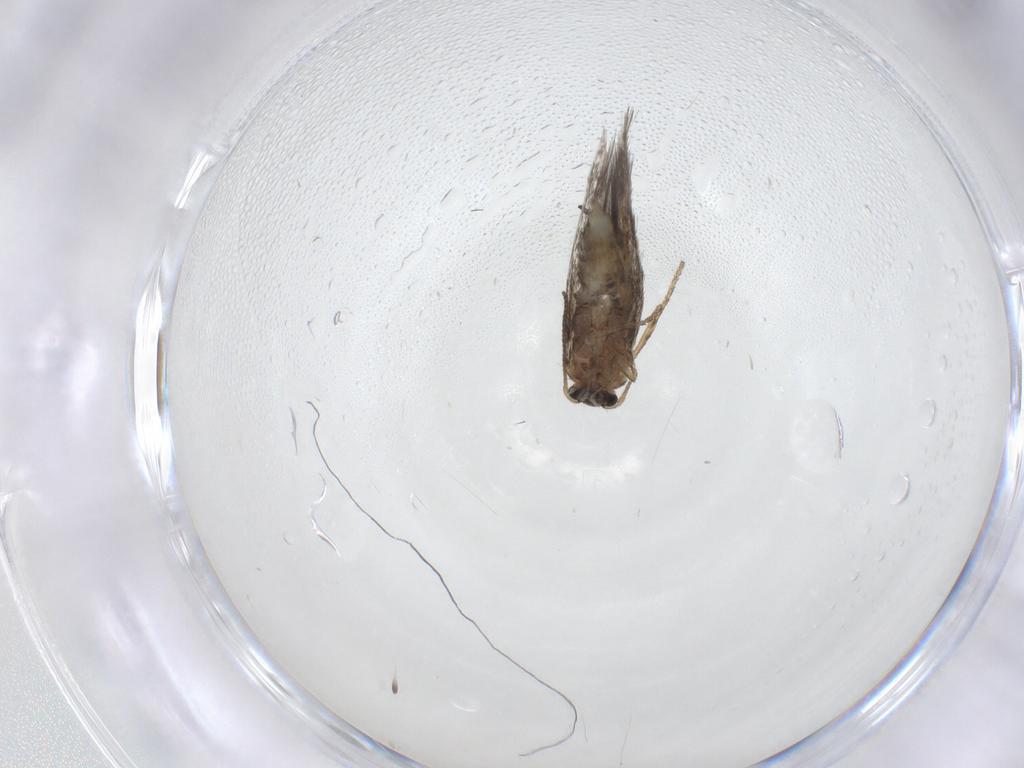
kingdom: Animalia
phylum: Arthropoda
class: Insecta
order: Lepidoptera
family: Nepticulidae
